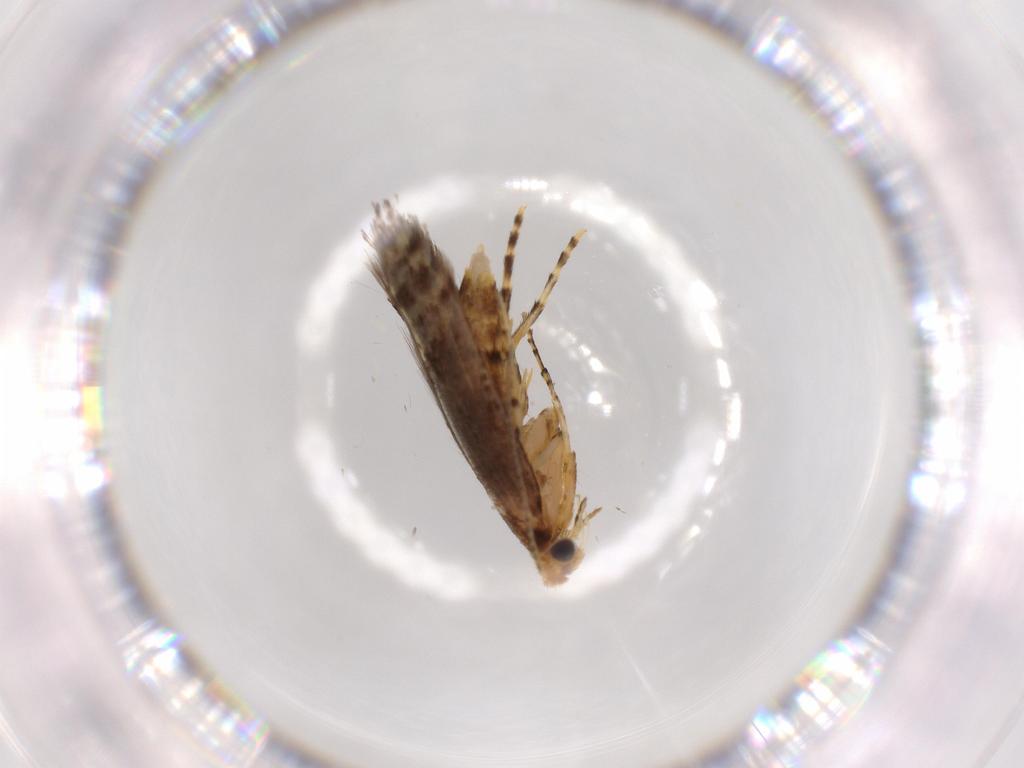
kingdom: Animalia
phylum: Arthropoda
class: Insecta
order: Lepidoptera
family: Argyresthiidae
